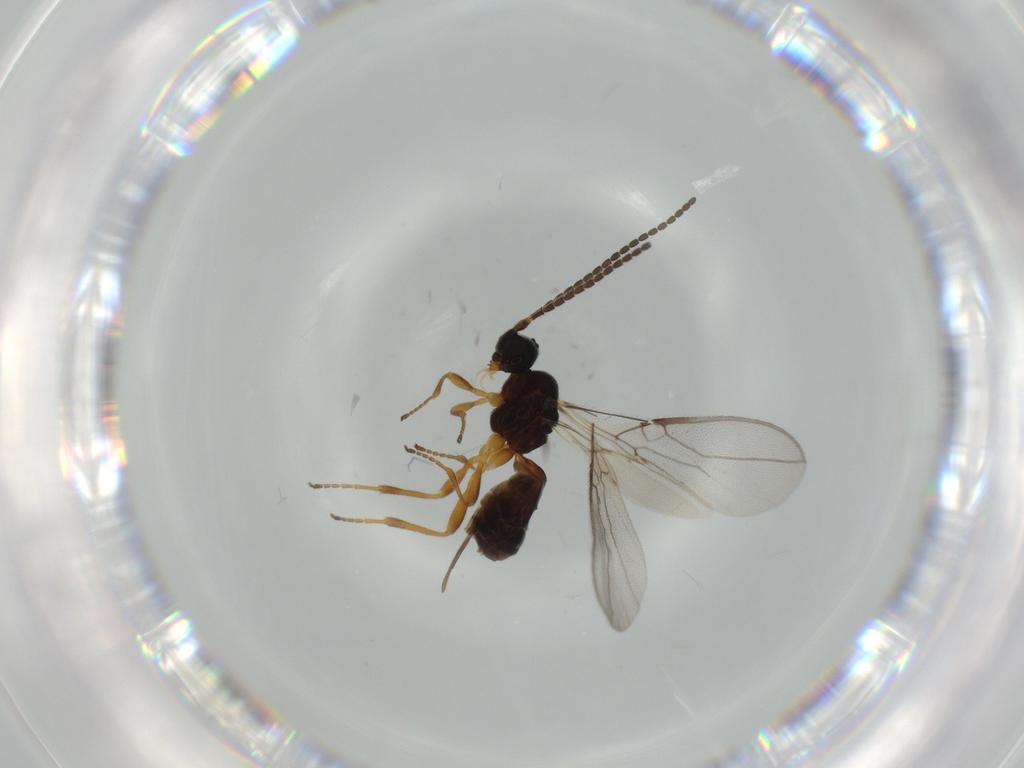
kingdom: Animalia
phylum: Arthropoda
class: Insecta
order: Hymenoptera
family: Braconidae
